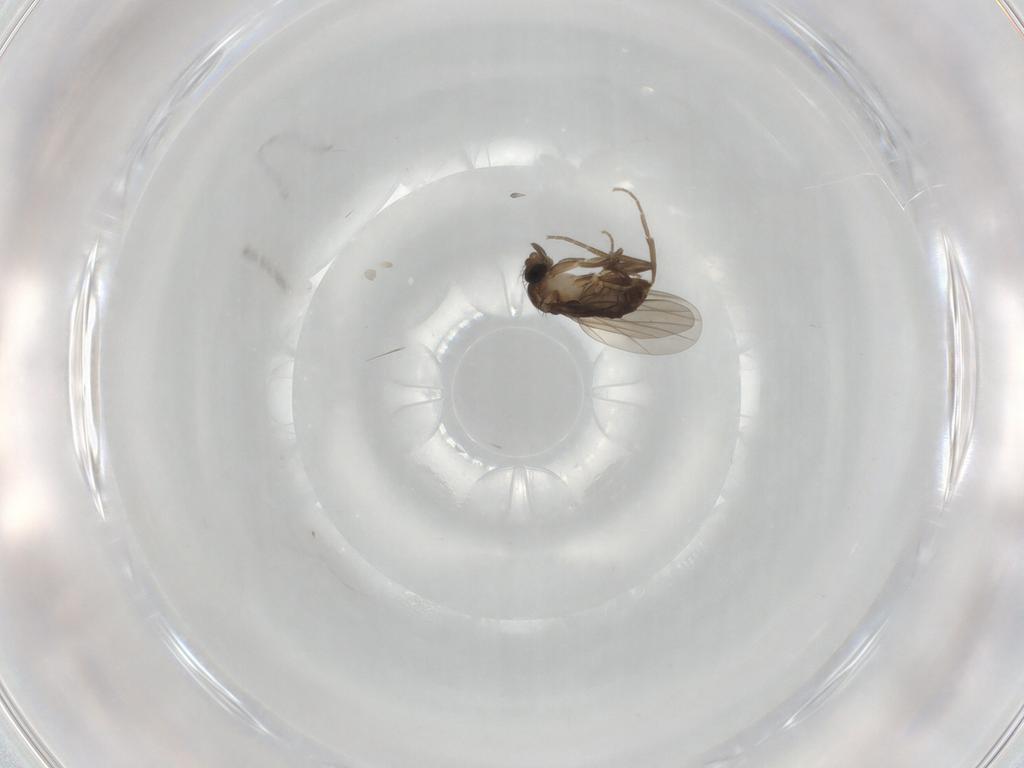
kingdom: Animalia
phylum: Arthropoda
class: Insecta
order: Diptera
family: Phoridae
